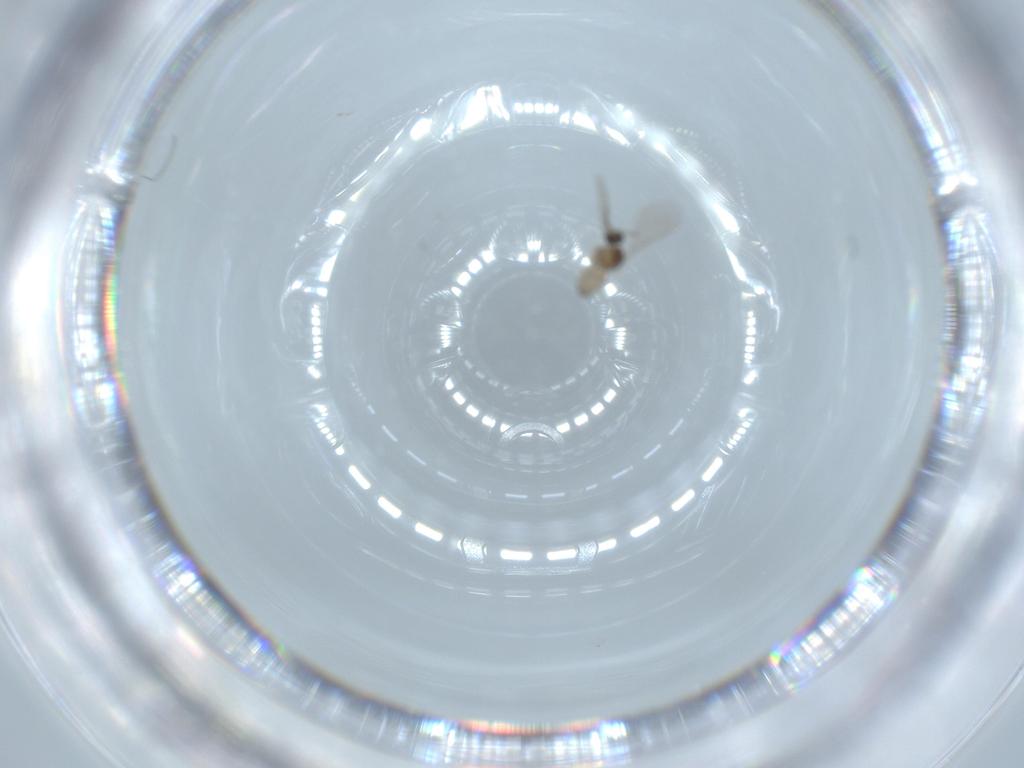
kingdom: Animalia
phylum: Arthropoda
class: Insecta
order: Diptera
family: Cecidomyiidae
